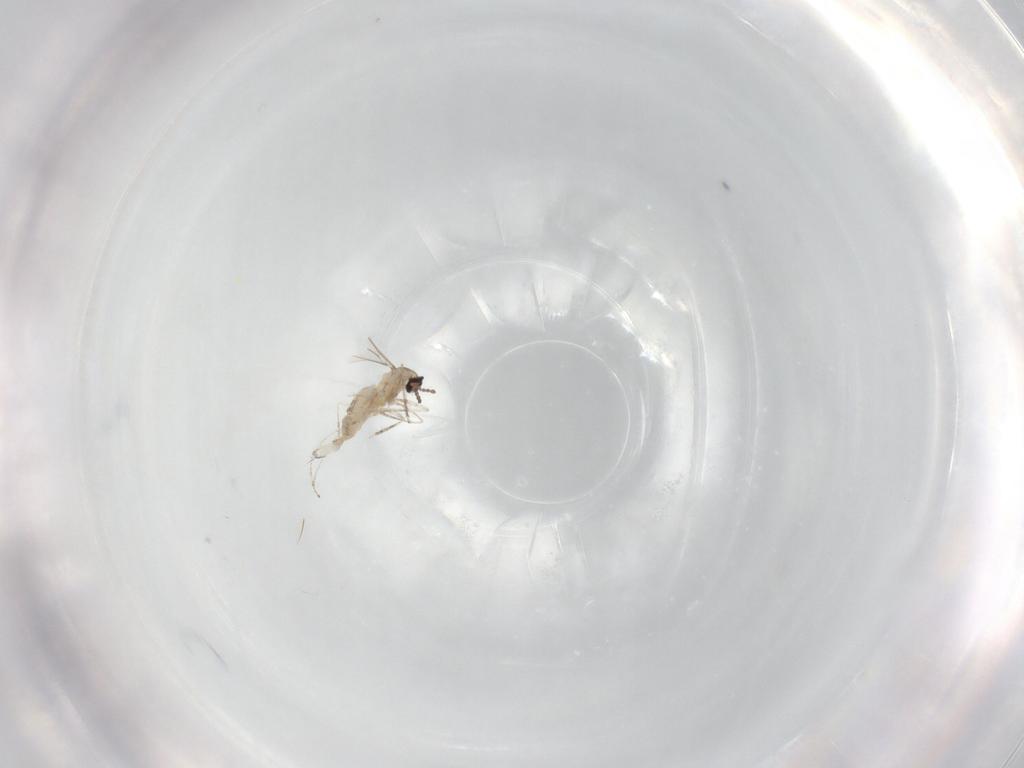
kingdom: Animalia
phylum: Arthropoda
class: Insecta
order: Diptera
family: Cecidomyiidae
